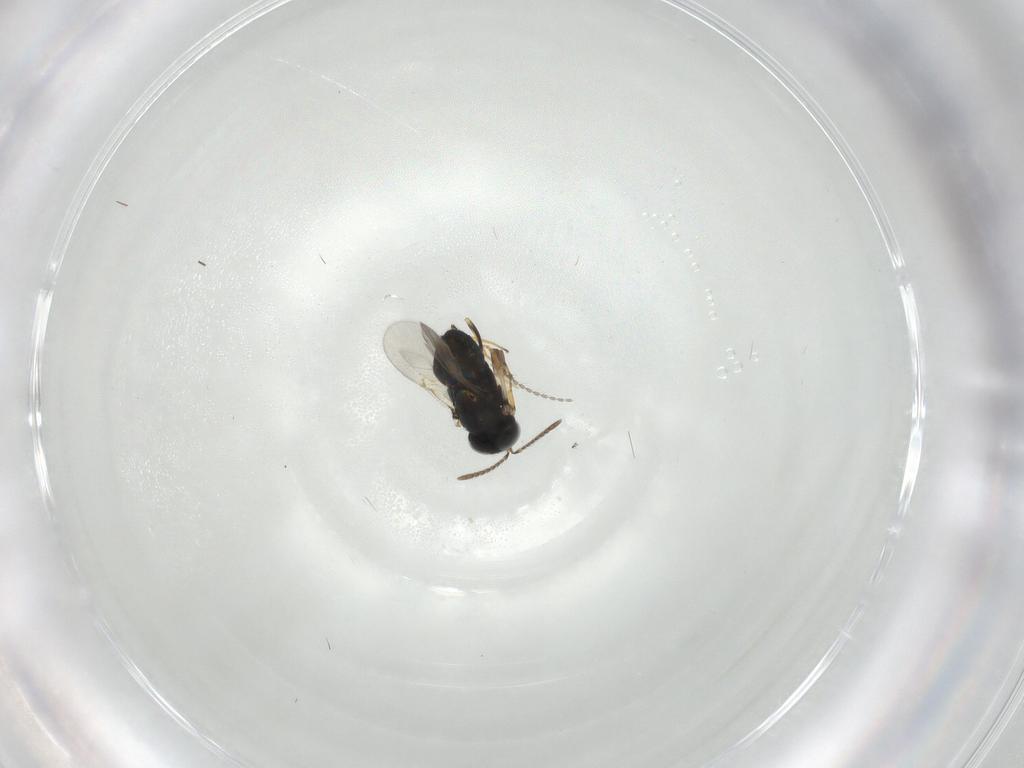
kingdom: Animalia
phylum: Arthropoda
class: Insecta
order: Diptera
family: Cecidomyiidae
